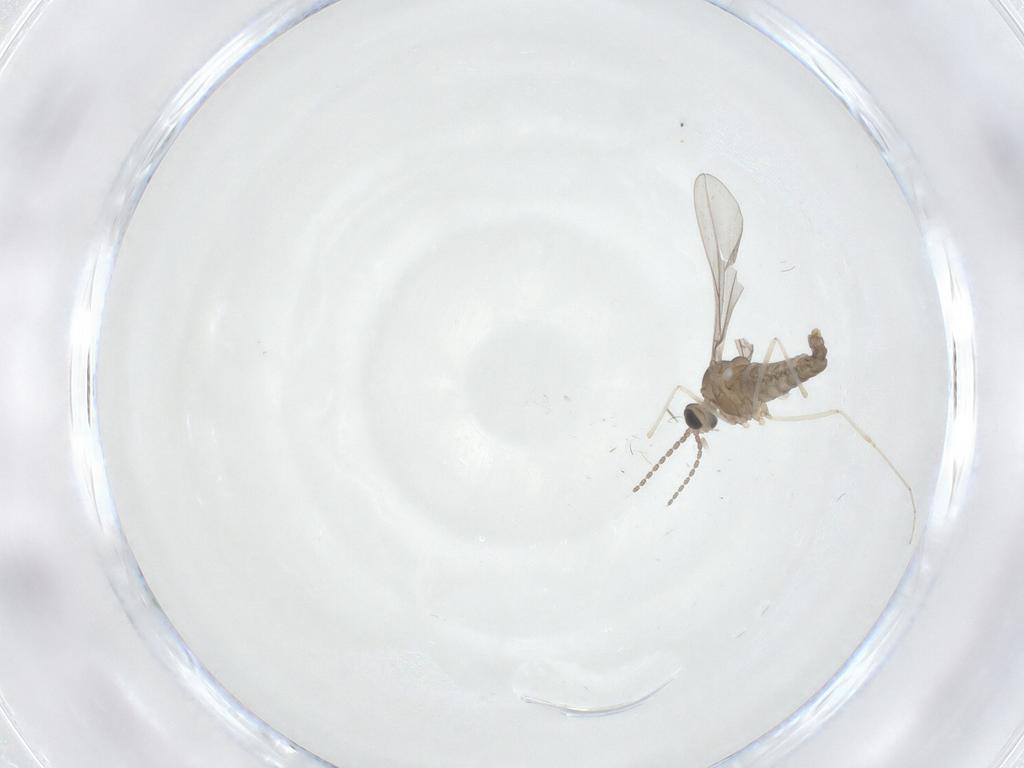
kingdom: Animalia
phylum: Arthropoda
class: Insecta
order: Diptera
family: Cecidomyiidae
